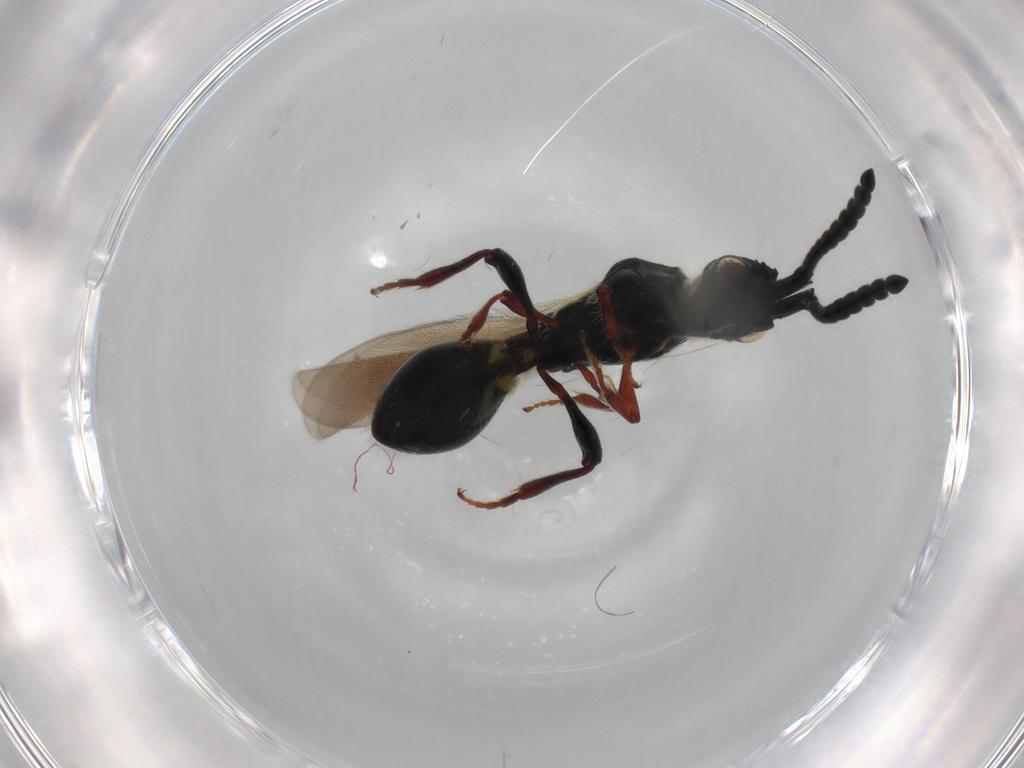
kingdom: Animalia
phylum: Arthropoda
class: Insecta
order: Hymenoptera
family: Diapriidae
